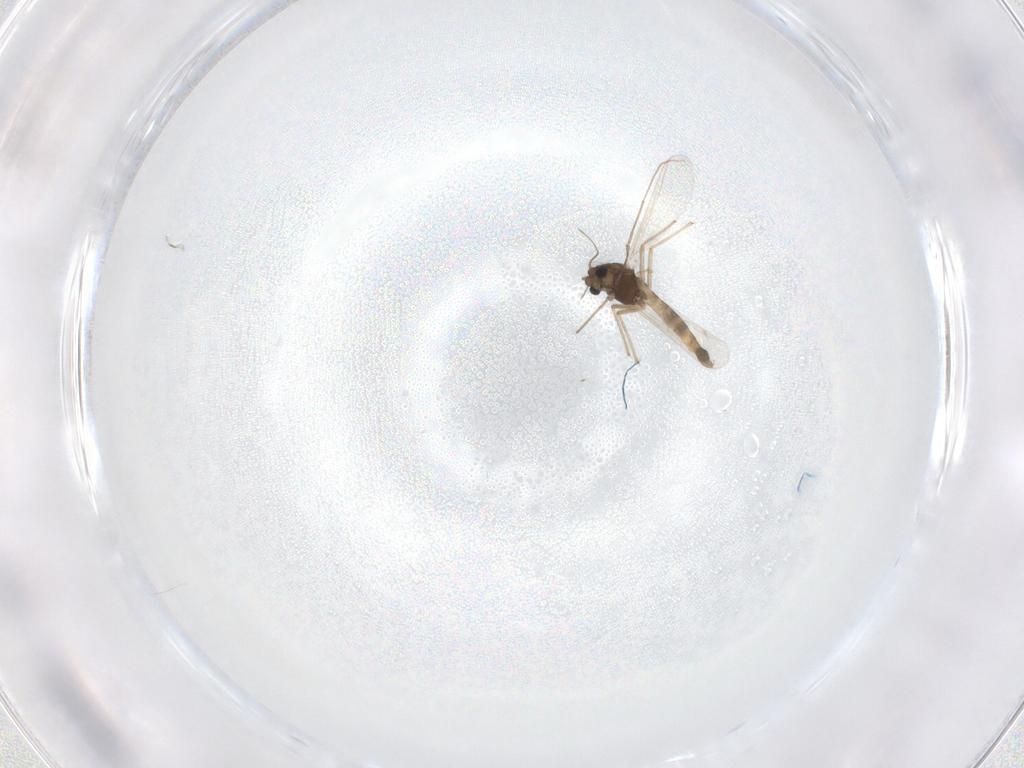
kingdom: Animalia
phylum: Arthropoda
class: Insecta
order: Diptera
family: Chironomidae
